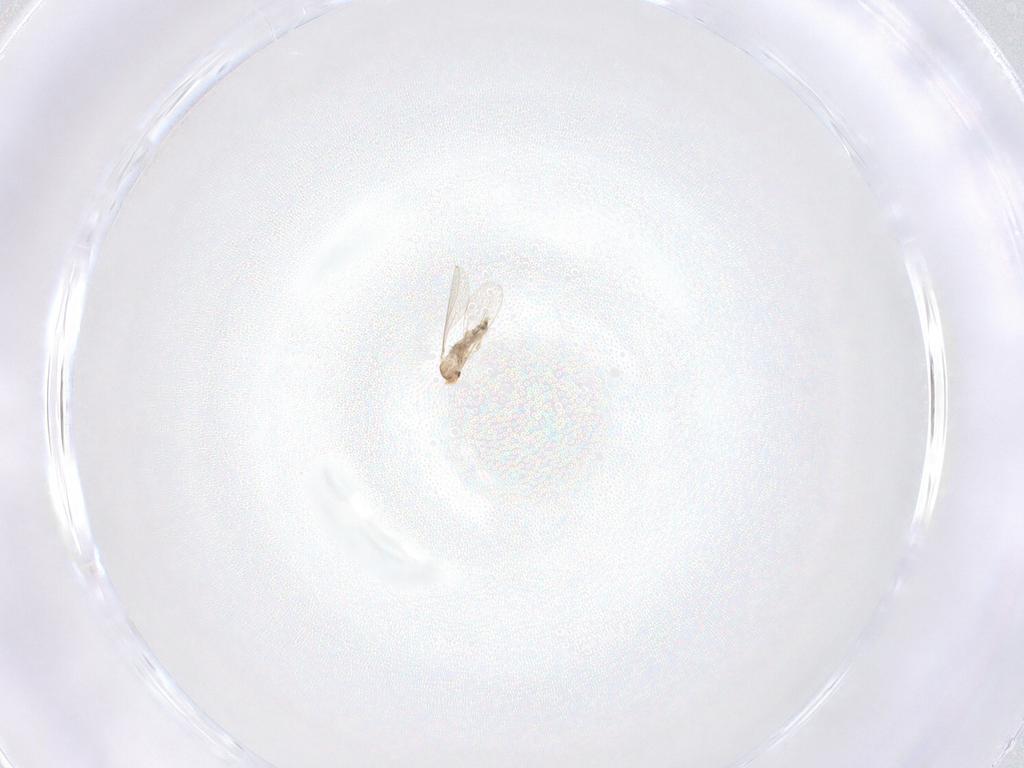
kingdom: Animalia
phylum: Arthropoda
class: Insecta
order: Diptera
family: Cecidomyiidae
